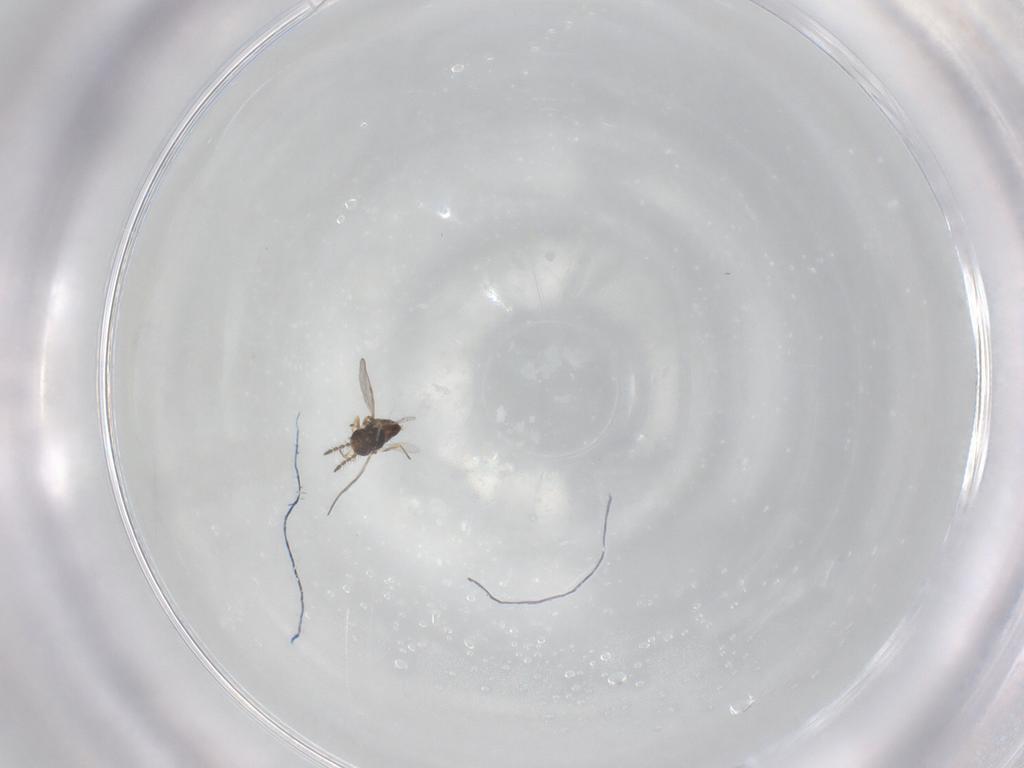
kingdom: Animalia
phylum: Arthropoda
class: Insecta
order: Hymenoptera
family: Encyrtidae
